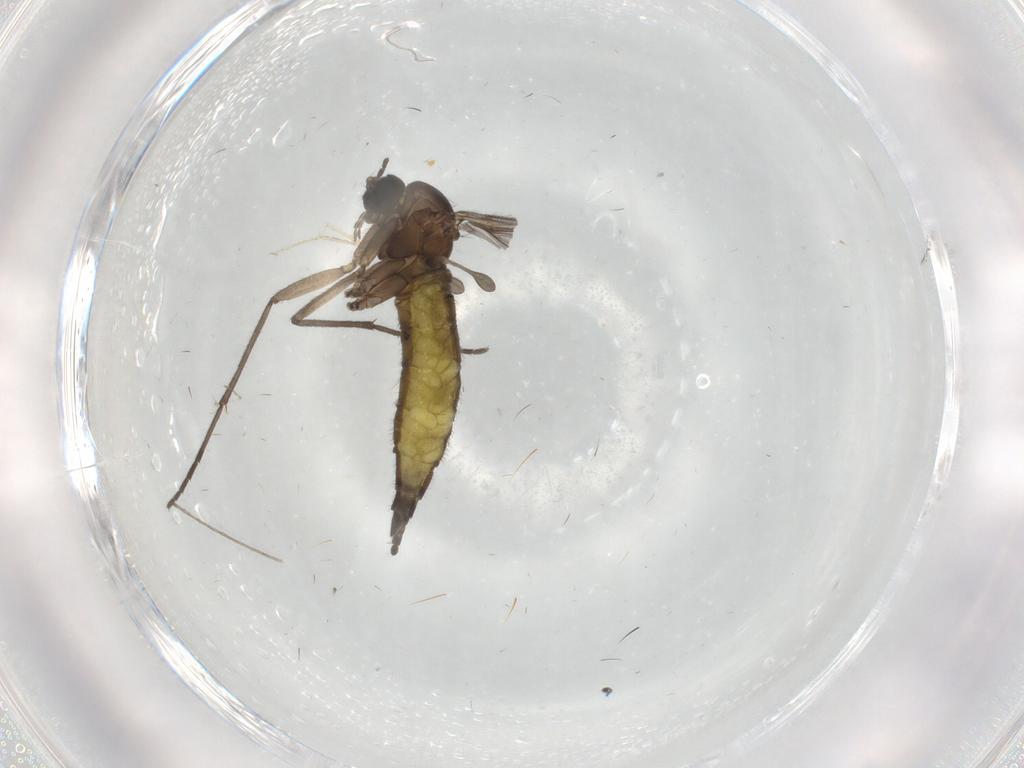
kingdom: Animalia
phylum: Arthropoda
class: Insecta
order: Diptera
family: Sciaridae
